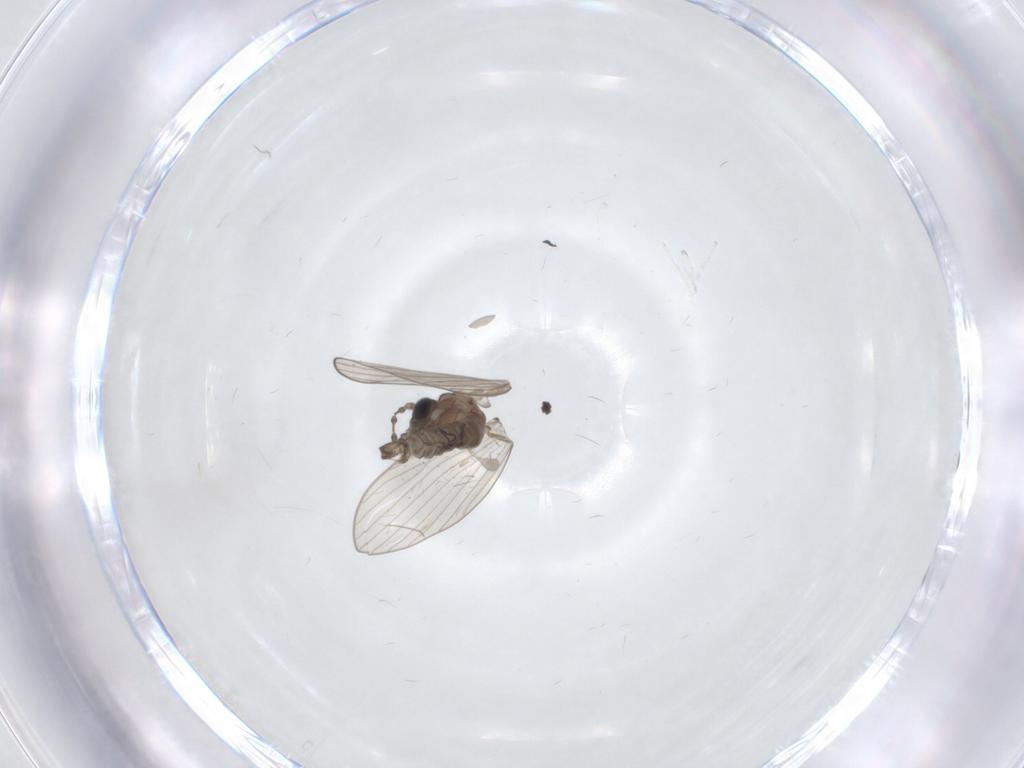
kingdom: Animalia
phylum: Arthropoda
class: Insecta
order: Diptera
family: Psychodidae
